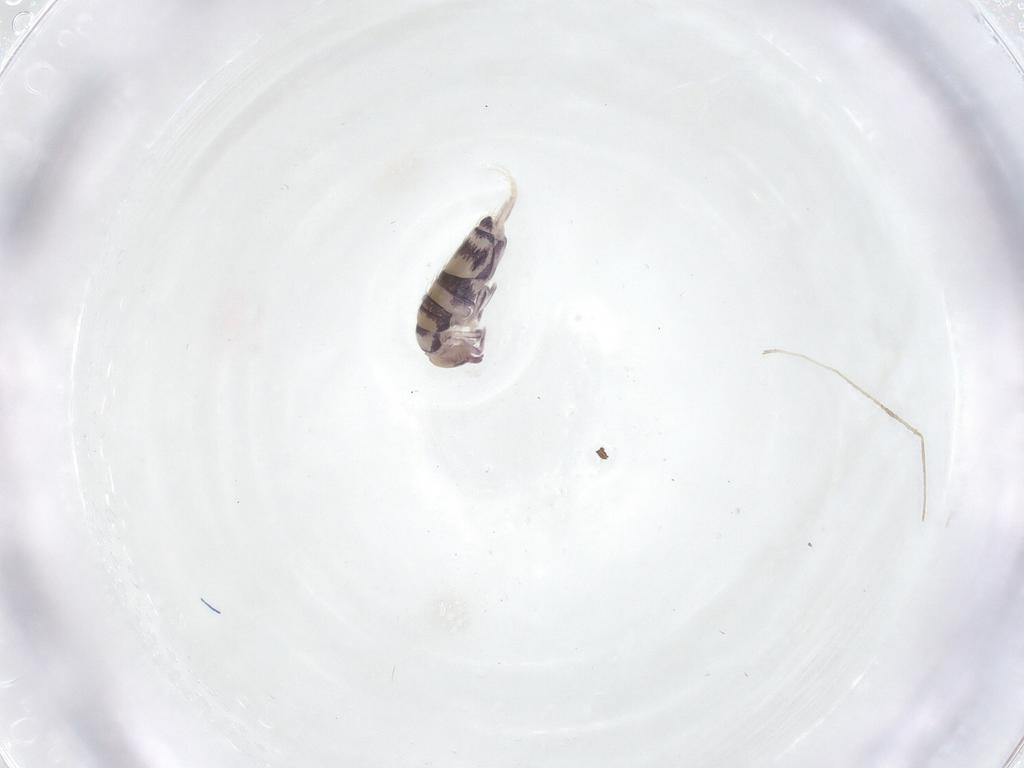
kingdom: Animalia
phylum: Arthropoda
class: Collembola
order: Entomobryomorpha
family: Entomobryidae
